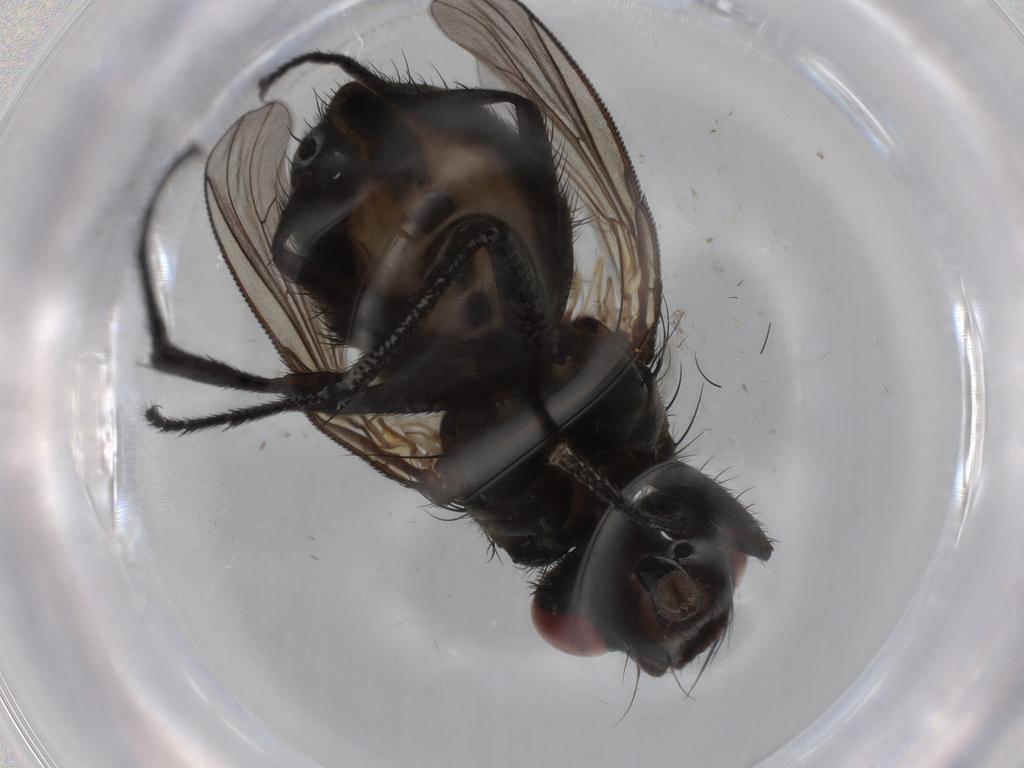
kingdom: Animalia
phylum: Arthropoda
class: Insecta
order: Diptera
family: Muscidae
